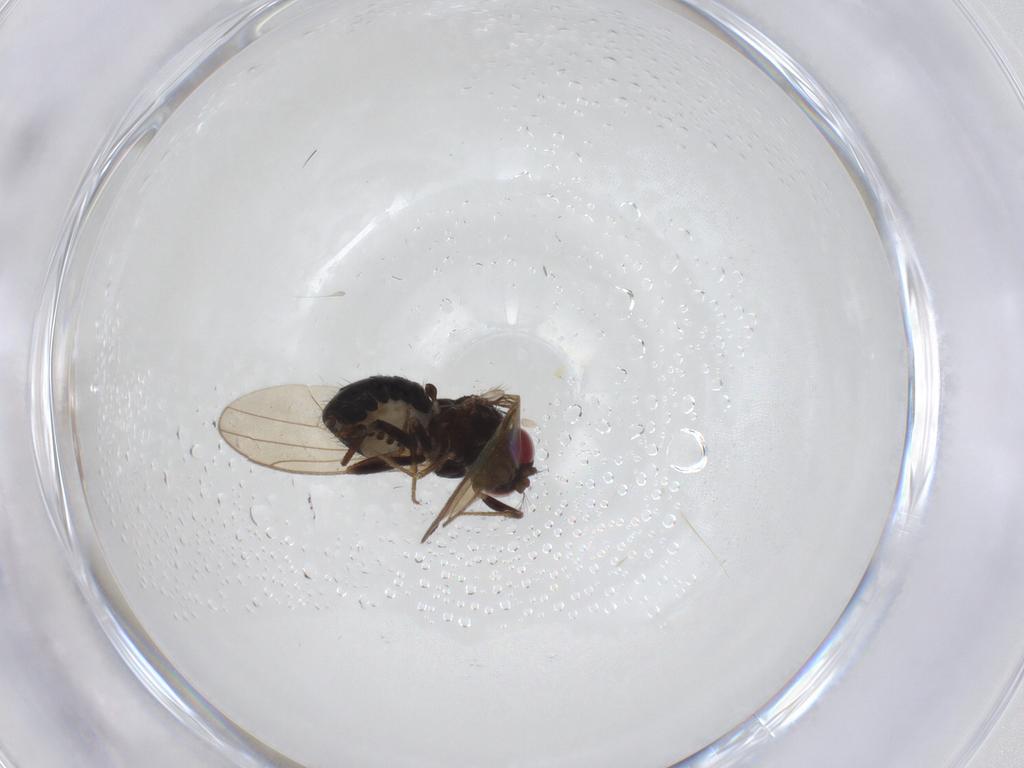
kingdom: Animalia
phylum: Arthropoda
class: Insecta
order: Diptera
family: Drosophilidae
